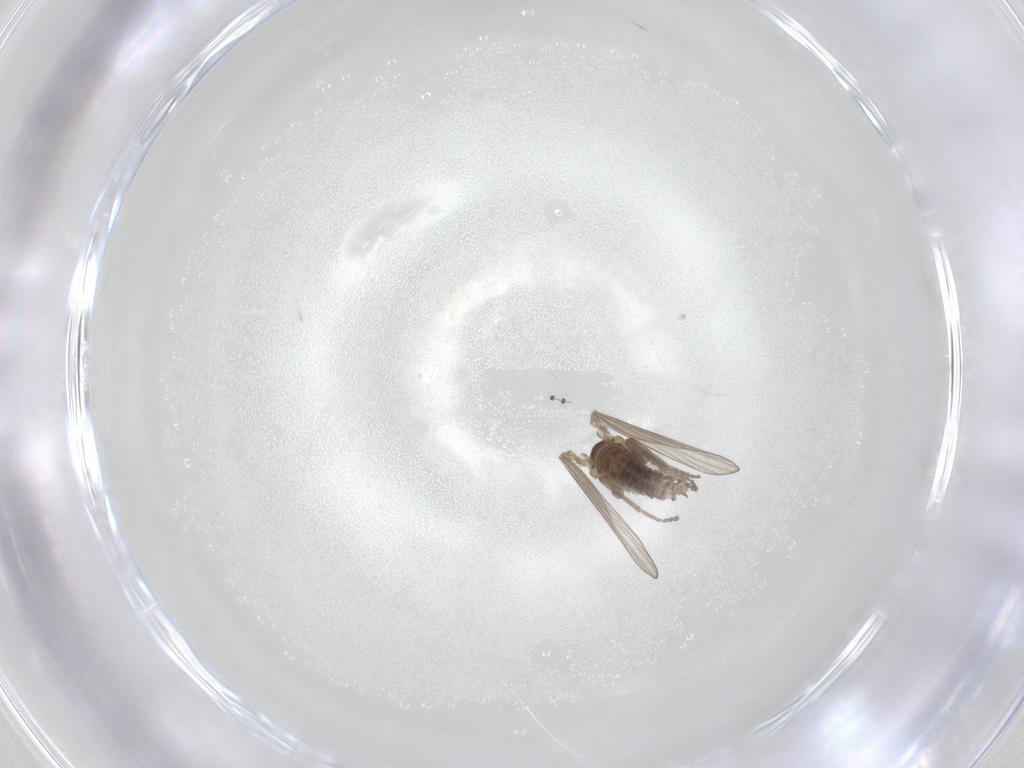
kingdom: Animalia
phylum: Arthropoda
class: Insecta
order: Diptera
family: Psychodidae
